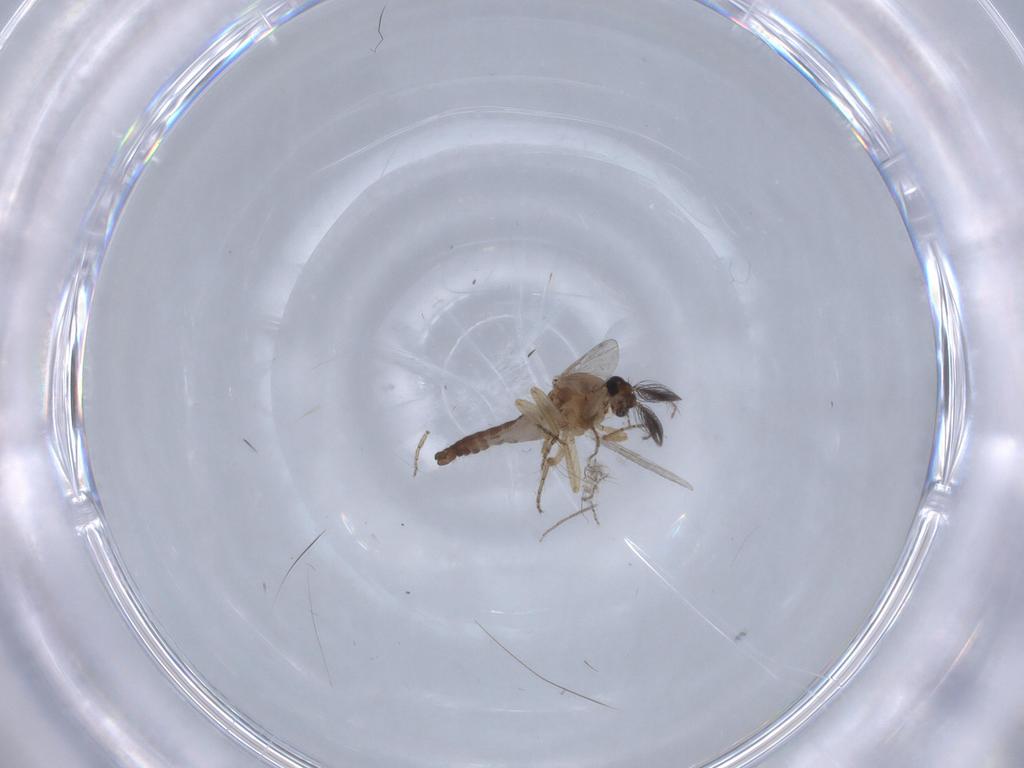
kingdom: Animalia
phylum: Arthropoda
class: Insecta
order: Diptera
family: Ceratopogonidae
